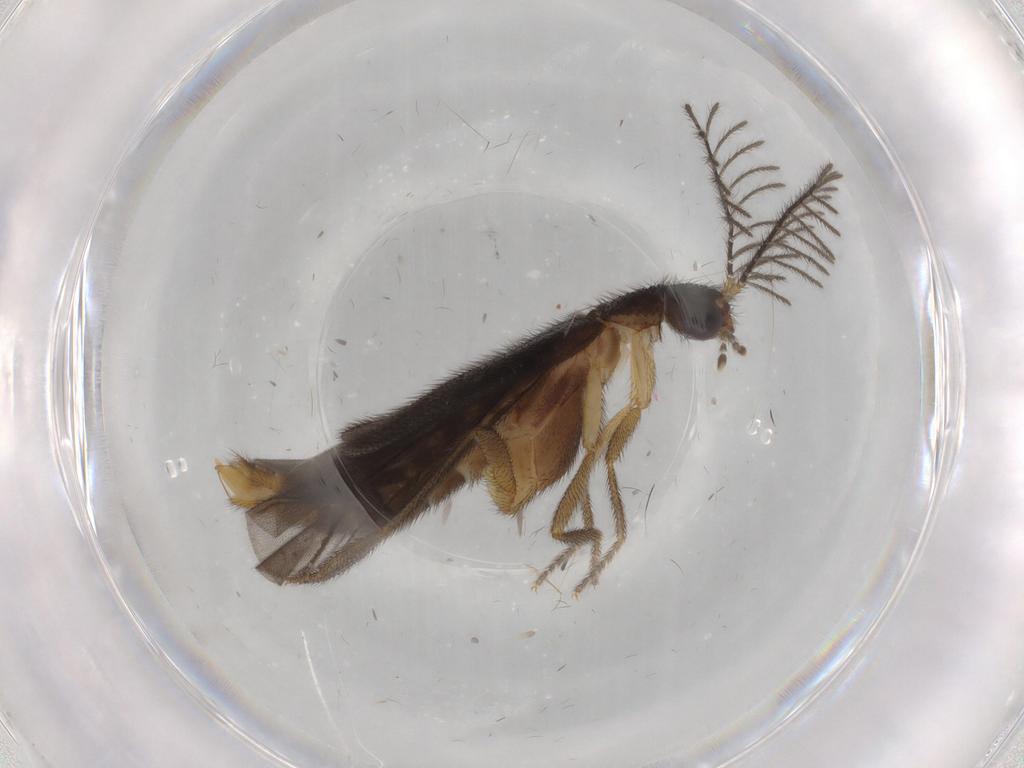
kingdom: Animalia
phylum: Arthropoda
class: Insecta
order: Coleoptera
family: Phengodidae
